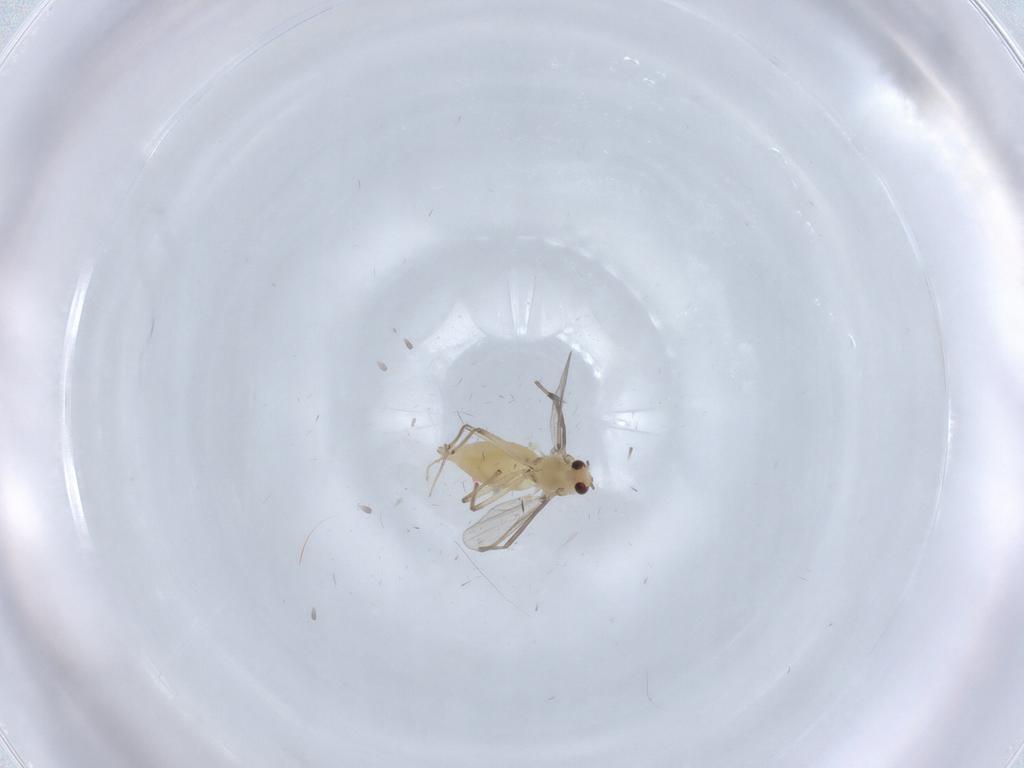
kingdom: Animalia
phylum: Arthropoda
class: Insecta
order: Diptera
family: Chironomidae
